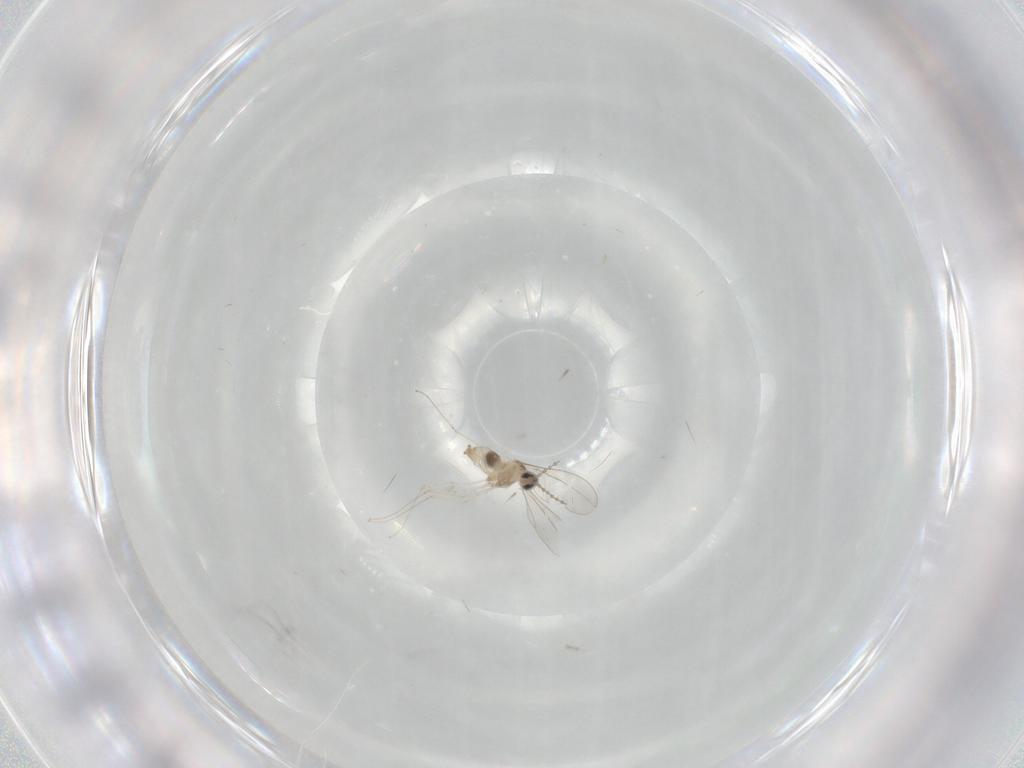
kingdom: Animalia
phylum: Arthropoda
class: Insecta
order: Diptera
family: Cecidomyiidae
